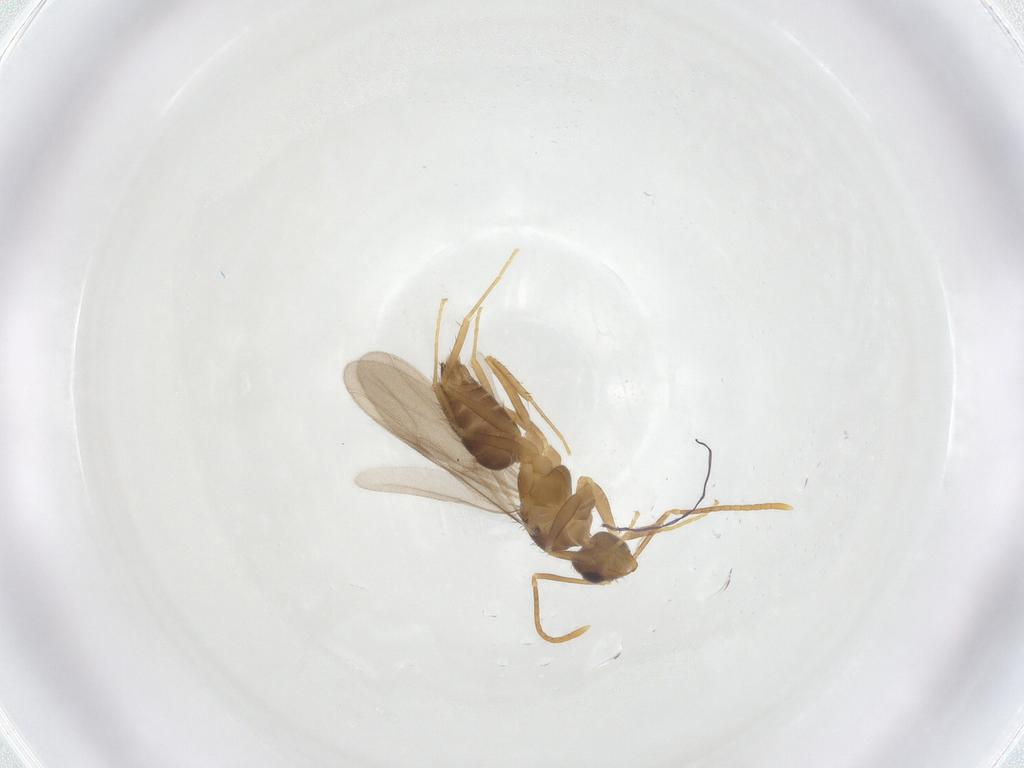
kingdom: Animalia
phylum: Arthropoda
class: Insecta
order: Hymenoptera
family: Formicidae
